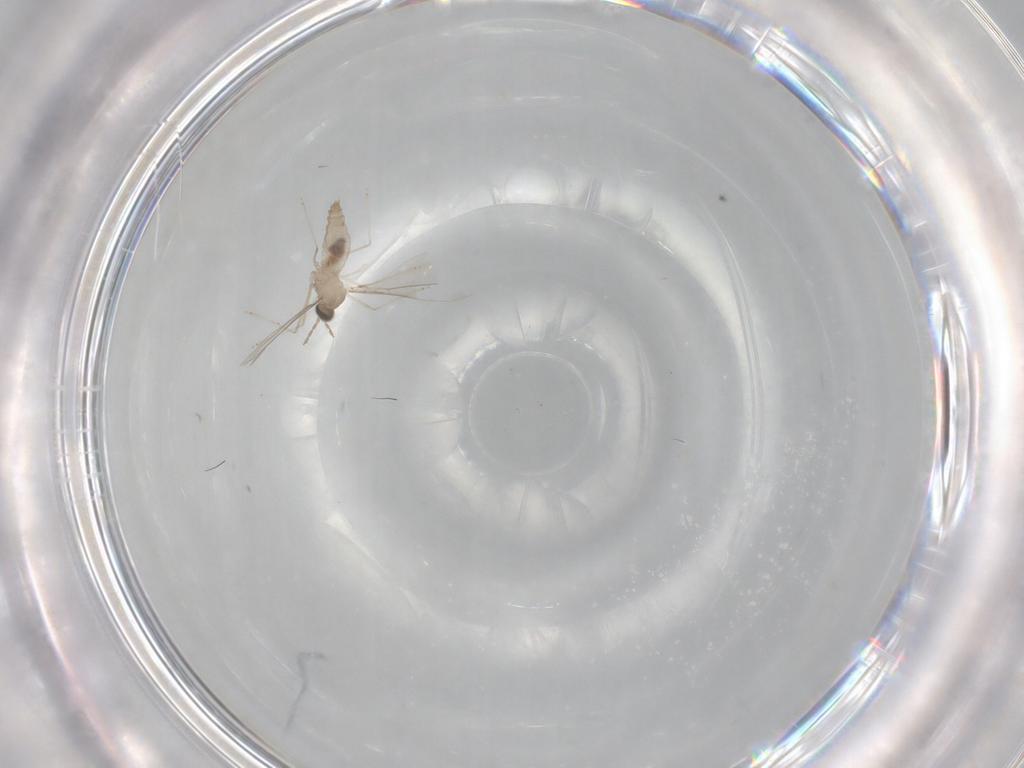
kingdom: Animalia
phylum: Arthropoda
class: Insecta
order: Diptera
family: Cecidomyiidae
